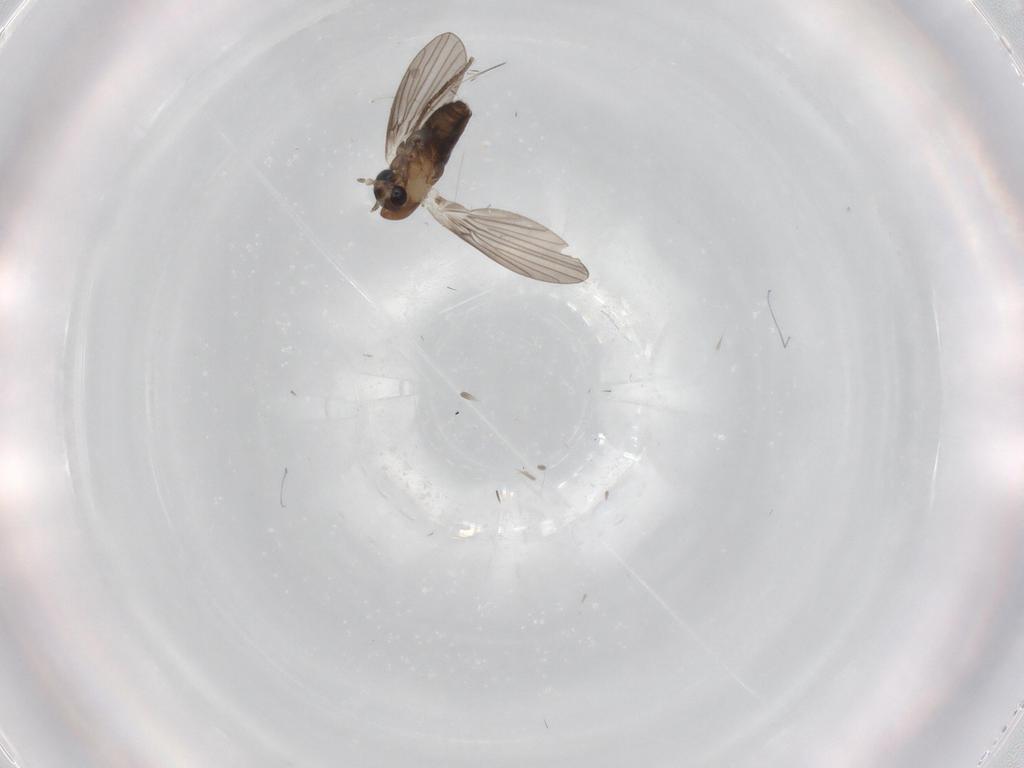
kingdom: Animalia
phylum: Arthropoda
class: Insecta
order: Diptera
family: Psychodidae
